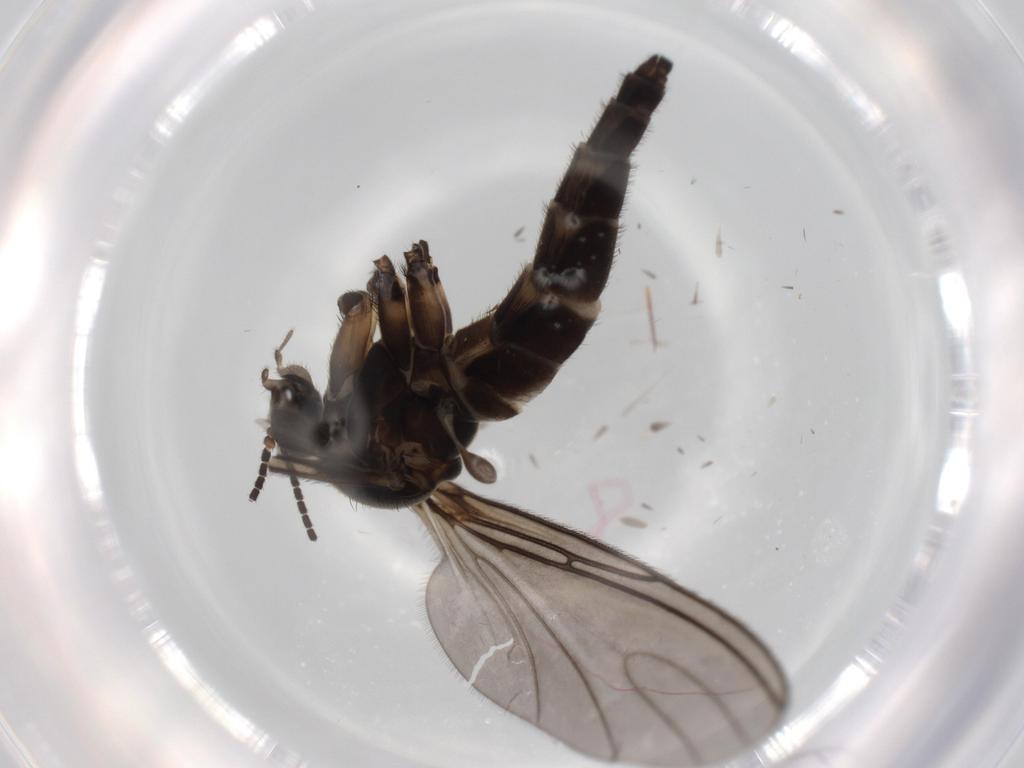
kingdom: Animalia
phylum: Arthropoda
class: Insecta
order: Diptera
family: Sciaridae
